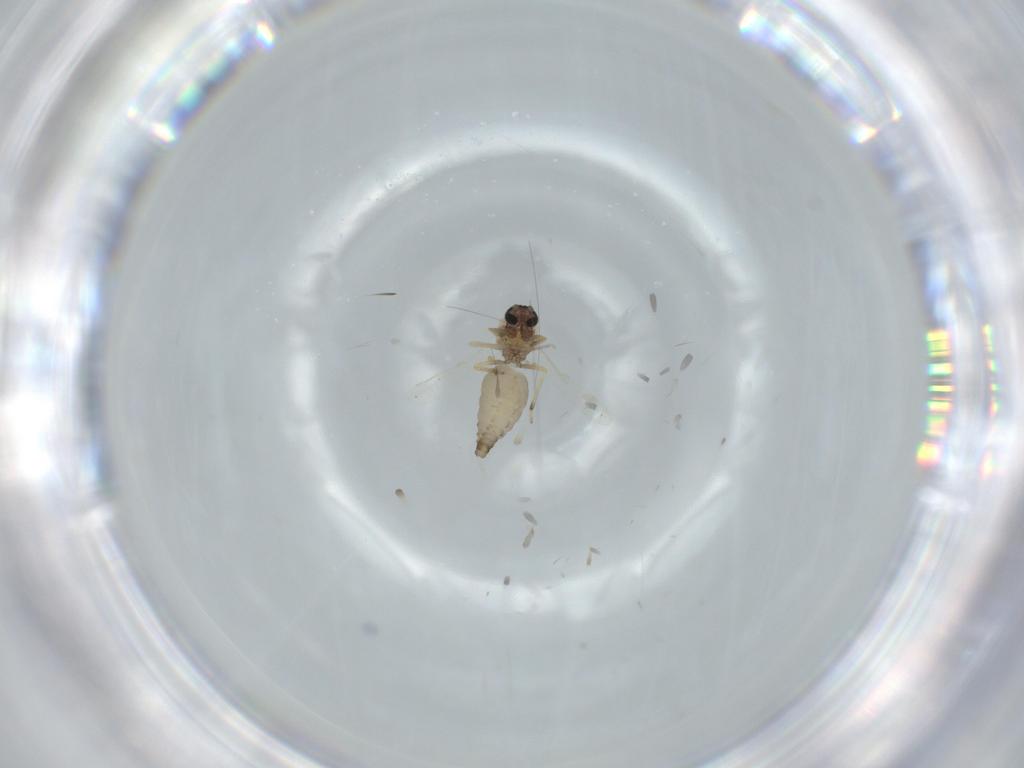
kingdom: Animalia
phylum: Arthropoda
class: Insecta
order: Diptera
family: Ceratopogonidae
